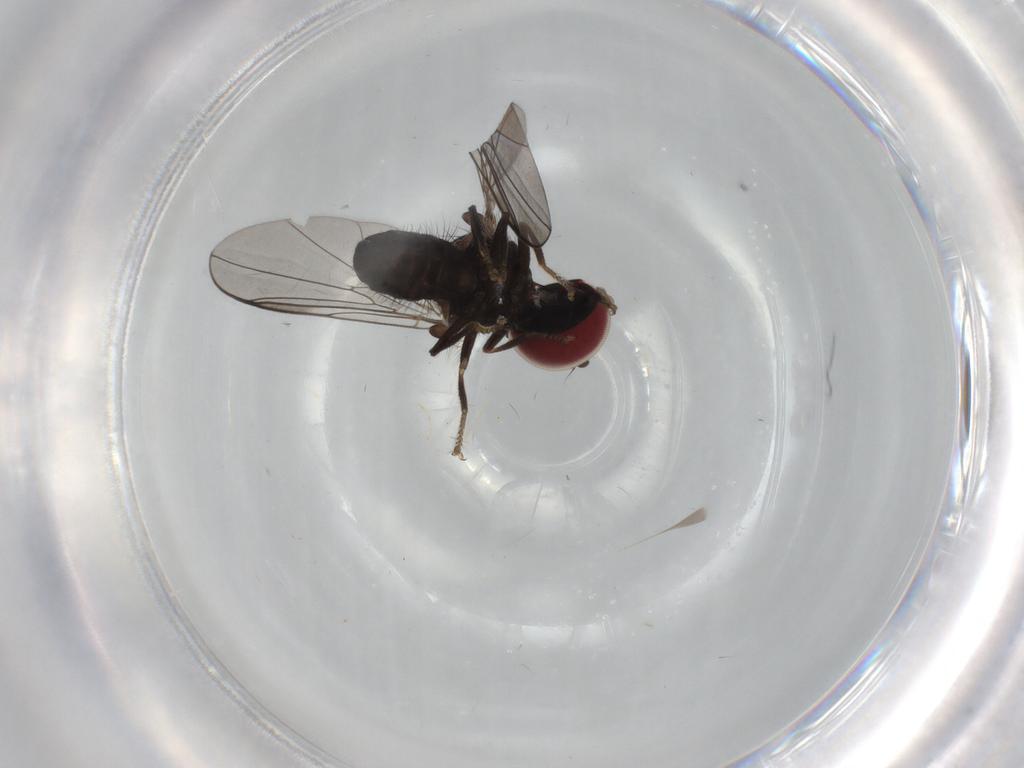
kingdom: Animalia
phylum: Arthropoda
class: Insecta
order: Diptera
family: Pipunculidae
